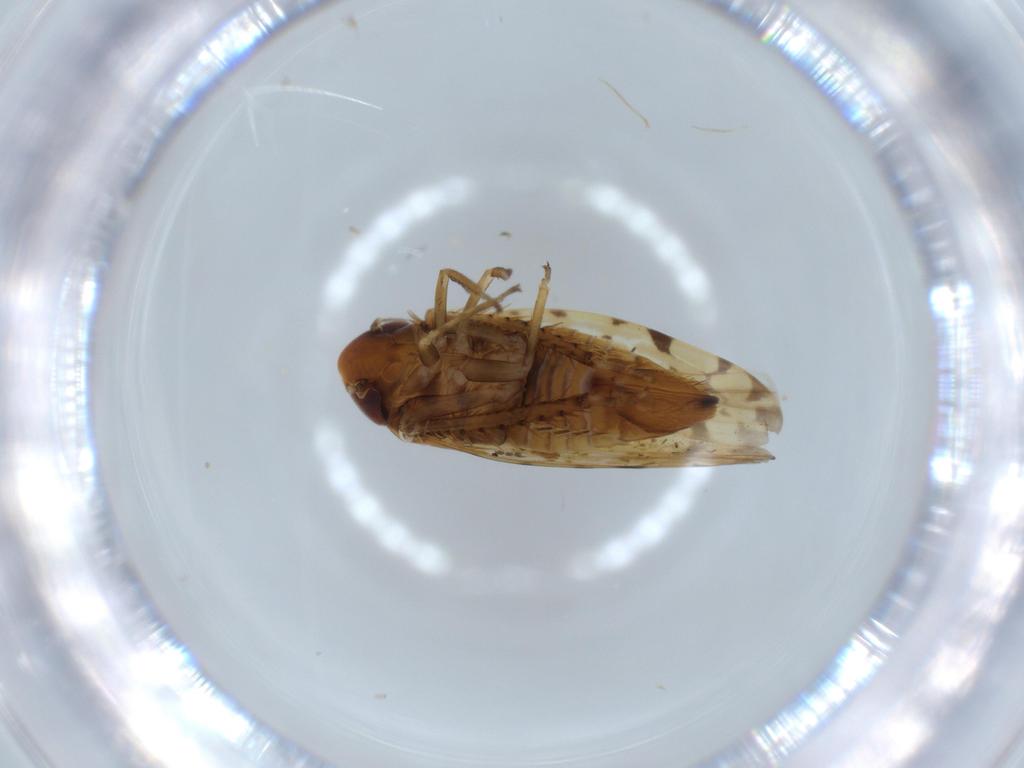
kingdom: Animalia
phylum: Arthropoda
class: Insecta
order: Hemiptera
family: Cicadellidae
